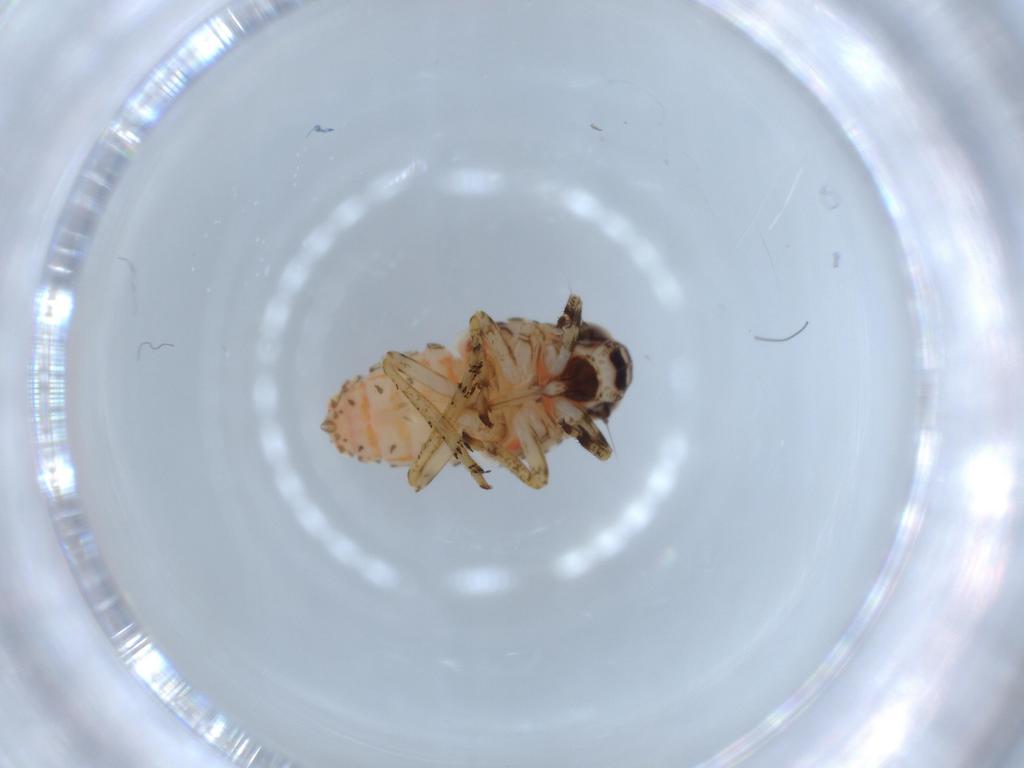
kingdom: Animalia
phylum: Arthropoda
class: Insecta
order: Hemiptera
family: Issidae
